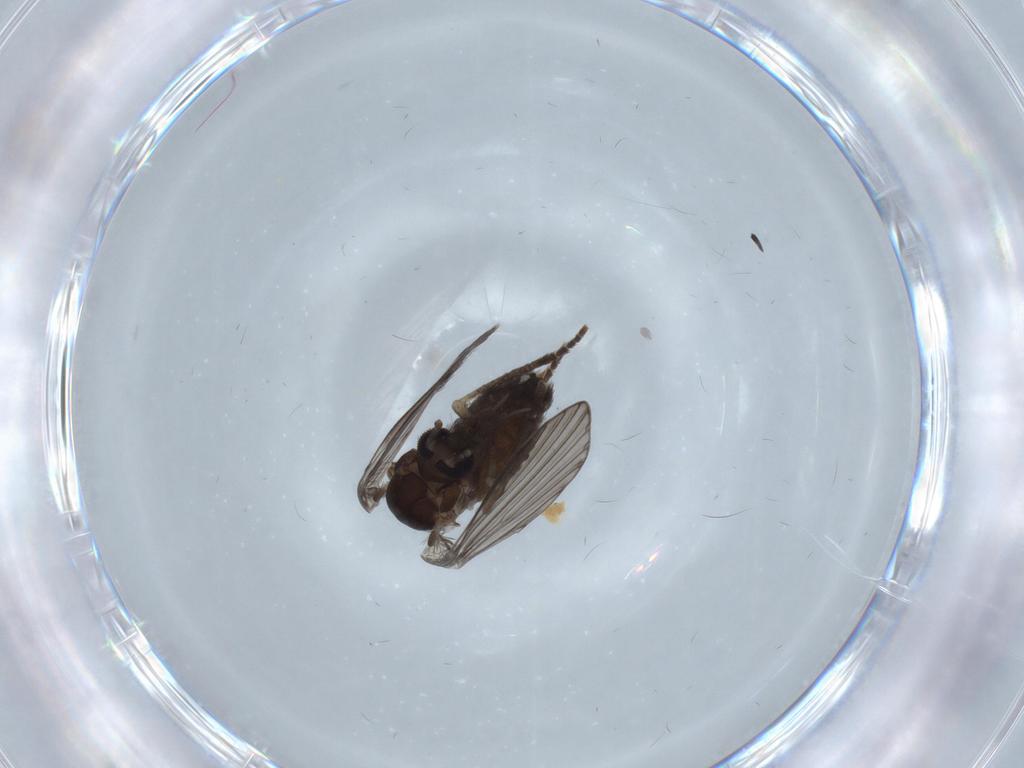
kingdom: Animalia
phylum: Arthropoda
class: Insecta
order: Diptera
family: Psychodidae
